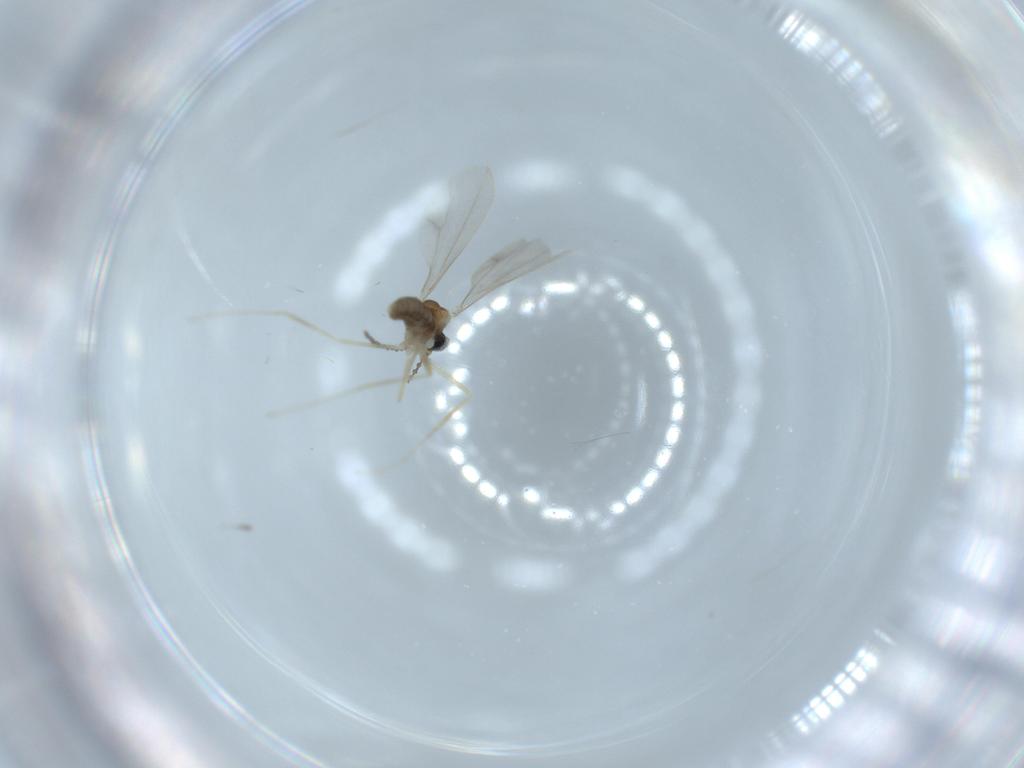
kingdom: Animalia
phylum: Arthropoda
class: Insecta
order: Diptera
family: Cecidomyiidae
